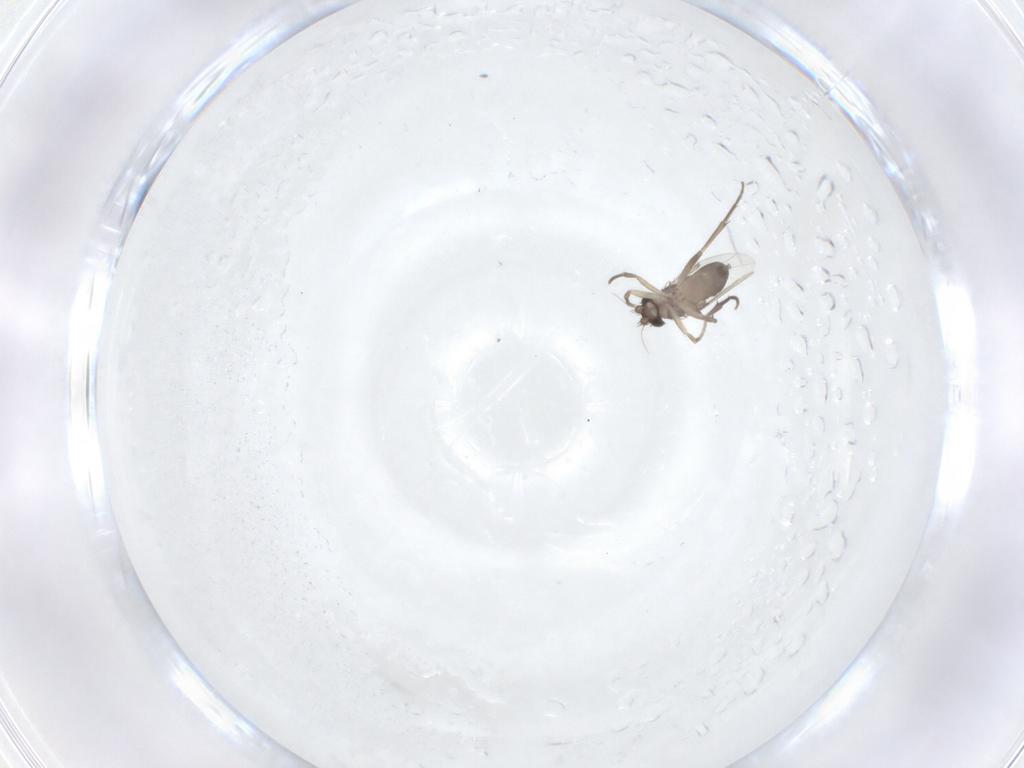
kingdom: Animalia
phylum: Arthropoda
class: Insecta
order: Diptera
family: Phoridae
